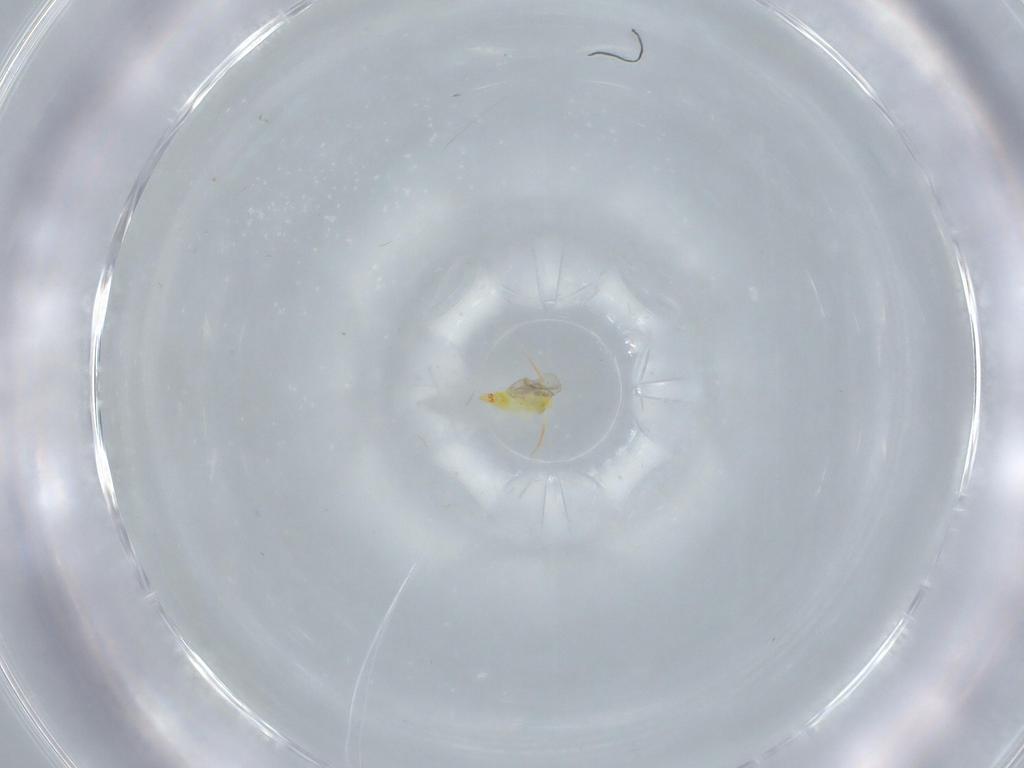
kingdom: Animalia
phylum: Arthropoda
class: Insecta
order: Hemiptera
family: Aleyrodidae
